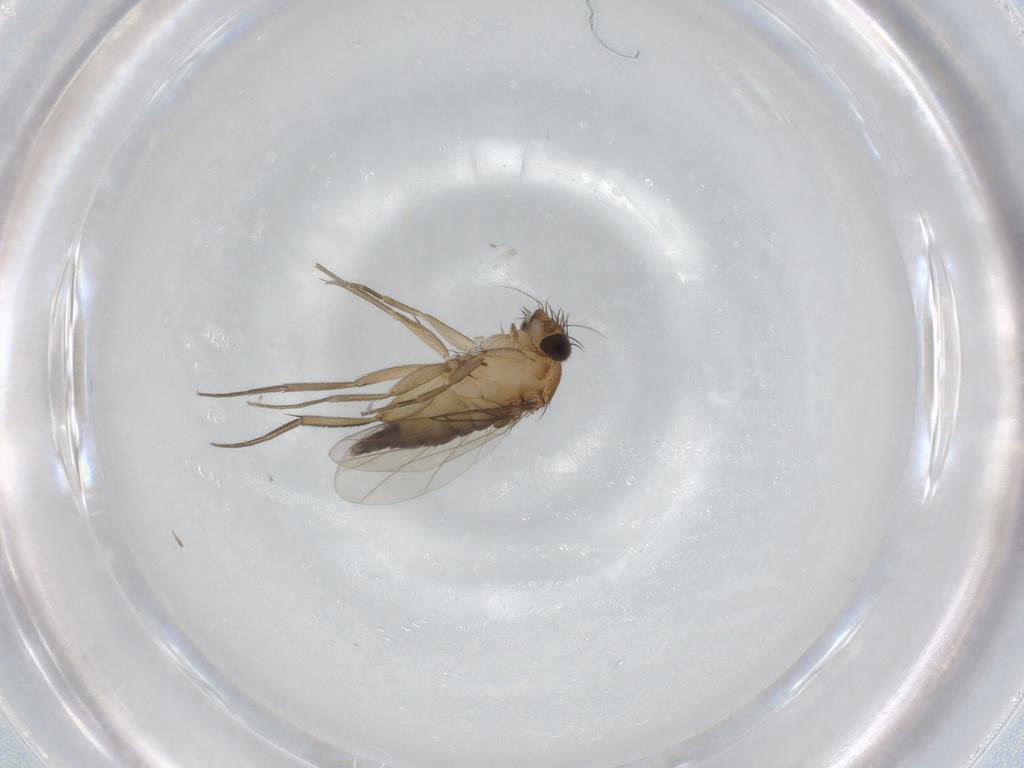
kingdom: Animalia
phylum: Arthropoda
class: Insecta
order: Diptera
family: Phoridae
